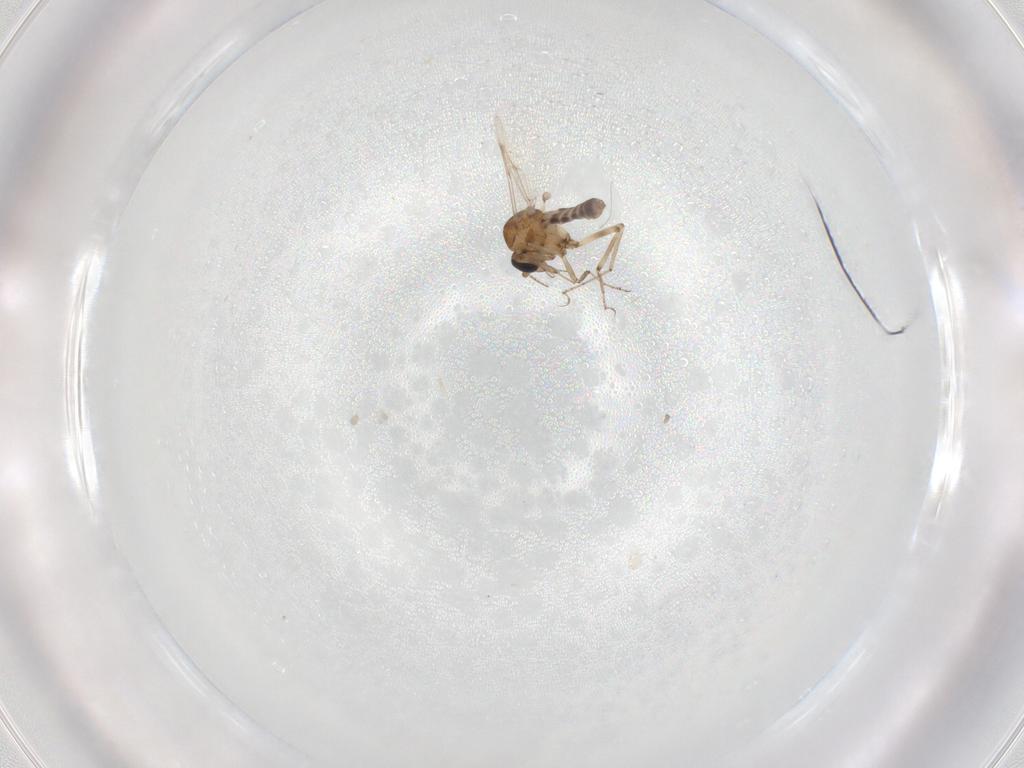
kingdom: Animalia
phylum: Arthropoda
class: Insecta
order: Diptera
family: Ceratopogonidae
